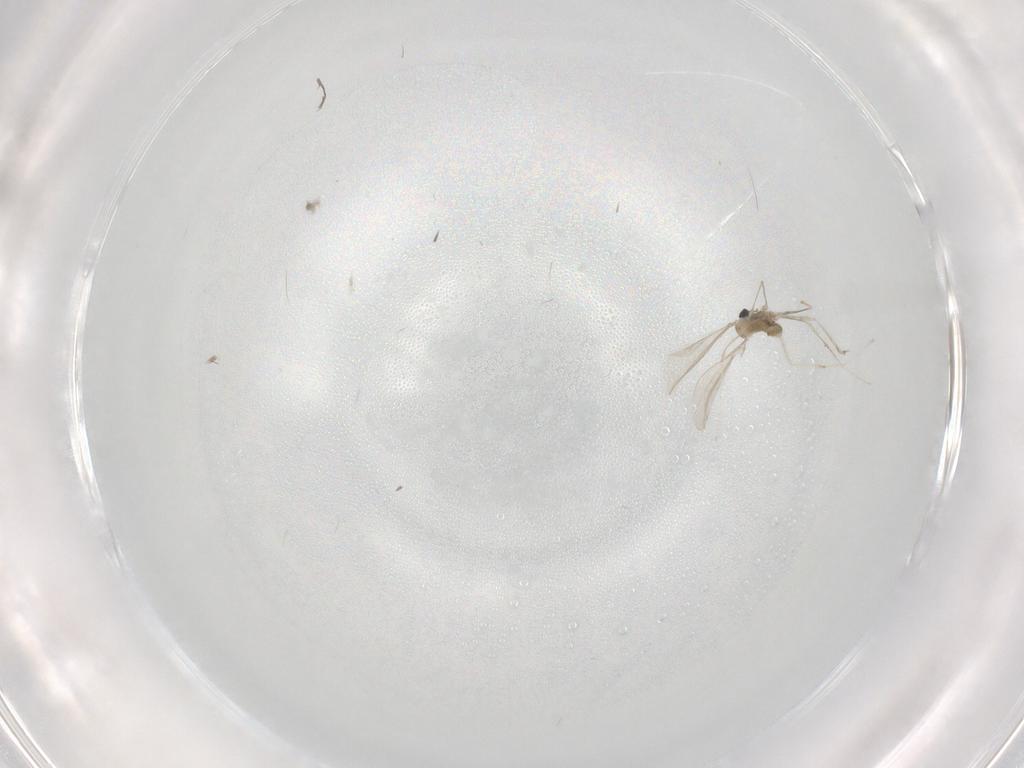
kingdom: Animalia
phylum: Arthropoda
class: Insecta
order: Diptera
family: Cecidomyiidae
